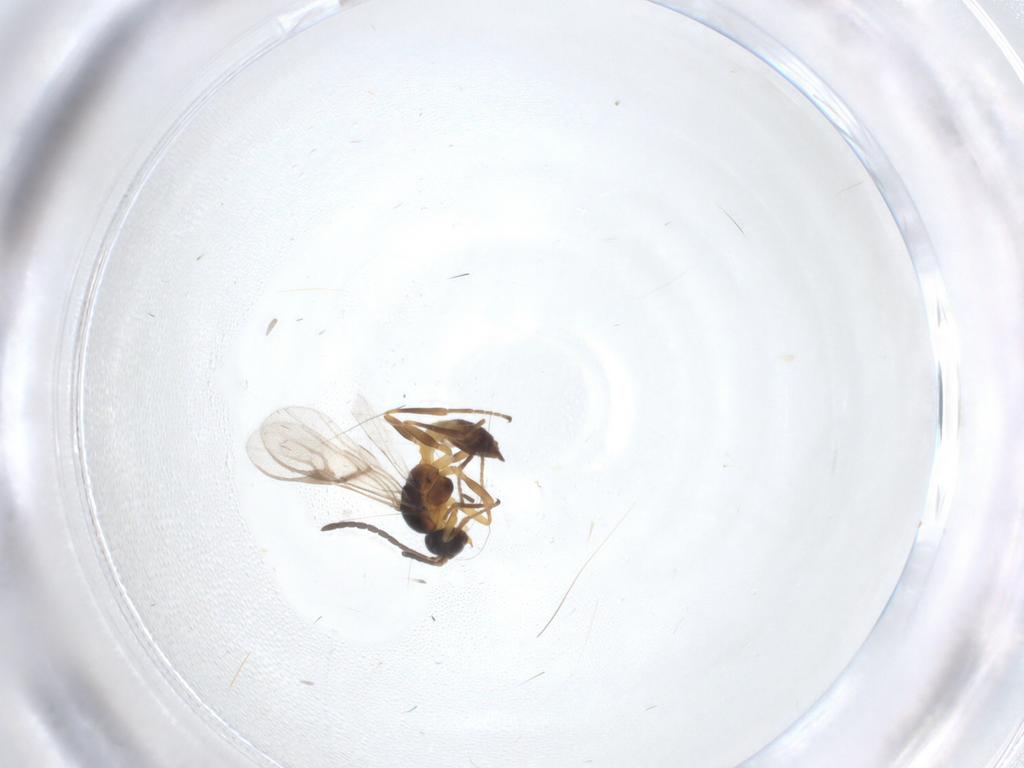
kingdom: Animalia
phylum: Arthropoda
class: Insecta
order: Hymenoptera
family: Braconidae
